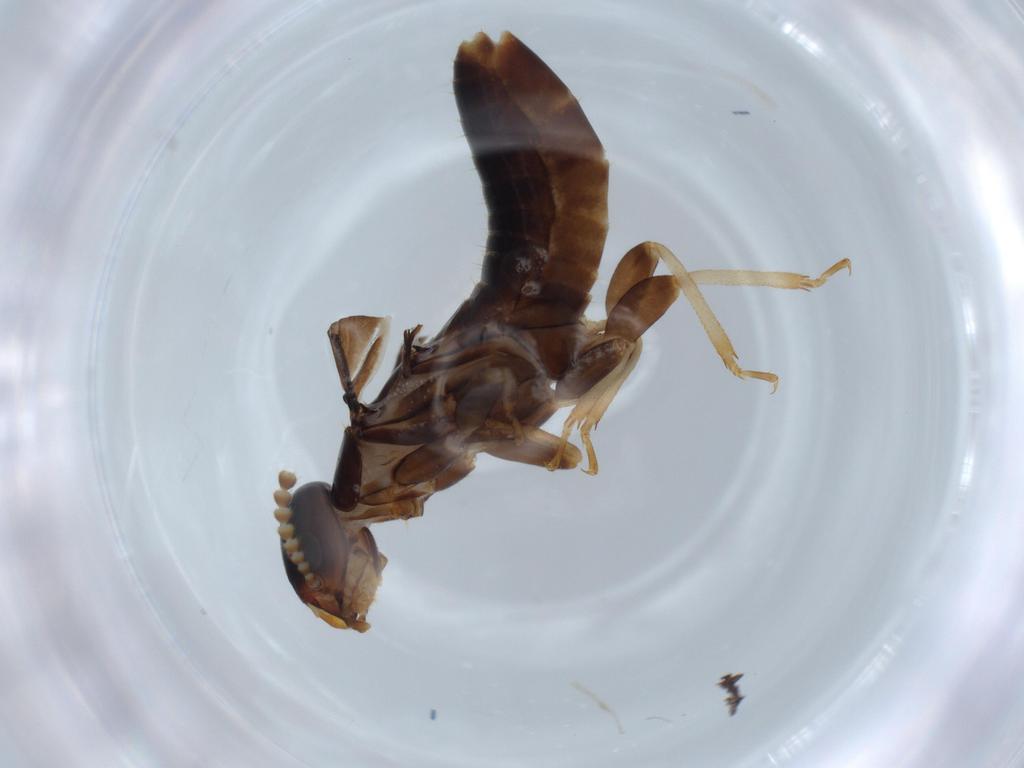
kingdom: Animalia
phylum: Arthropoda
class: Insecta
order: Blattodea
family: Kalotermitidae
